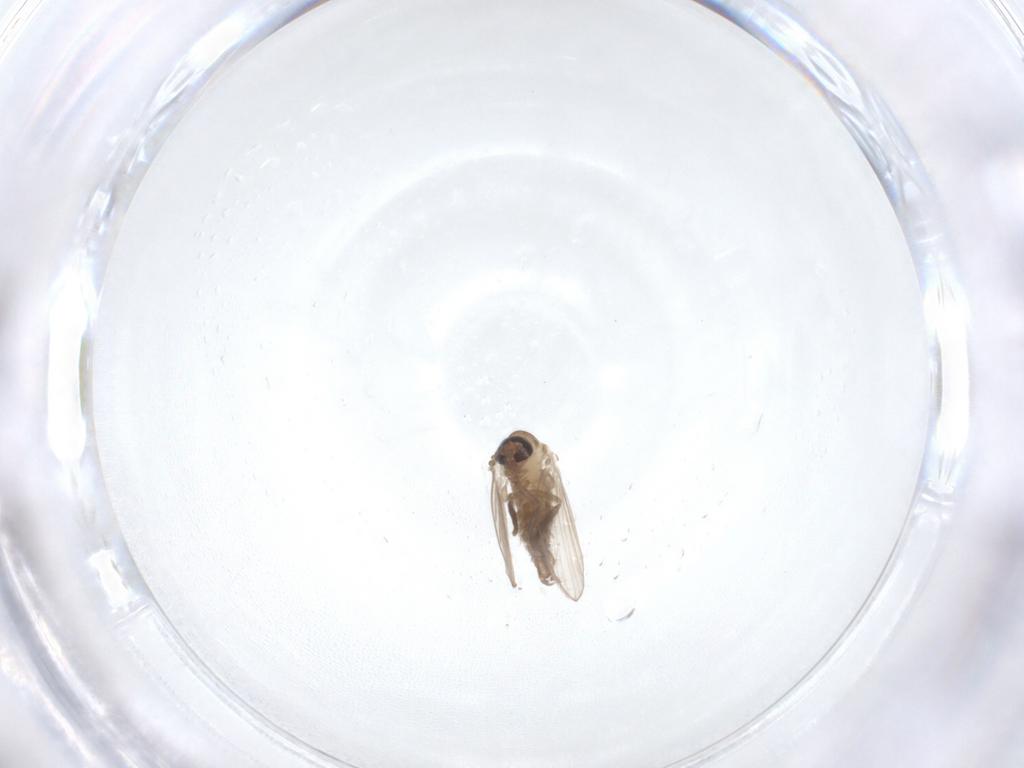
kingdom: Animalia
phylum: Arthropoda
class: Insecta
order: Diptera
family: Psychodidae
